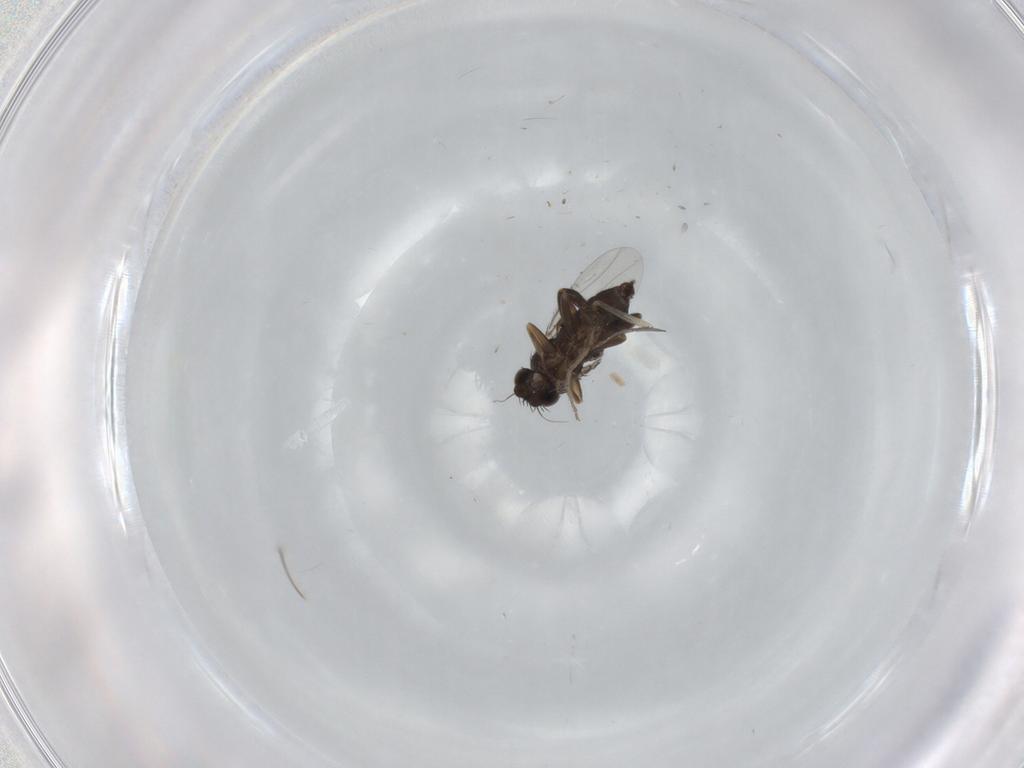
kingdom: Animalia
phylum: Arthropoda
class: Insecta
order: Diptera
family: Phoridae
